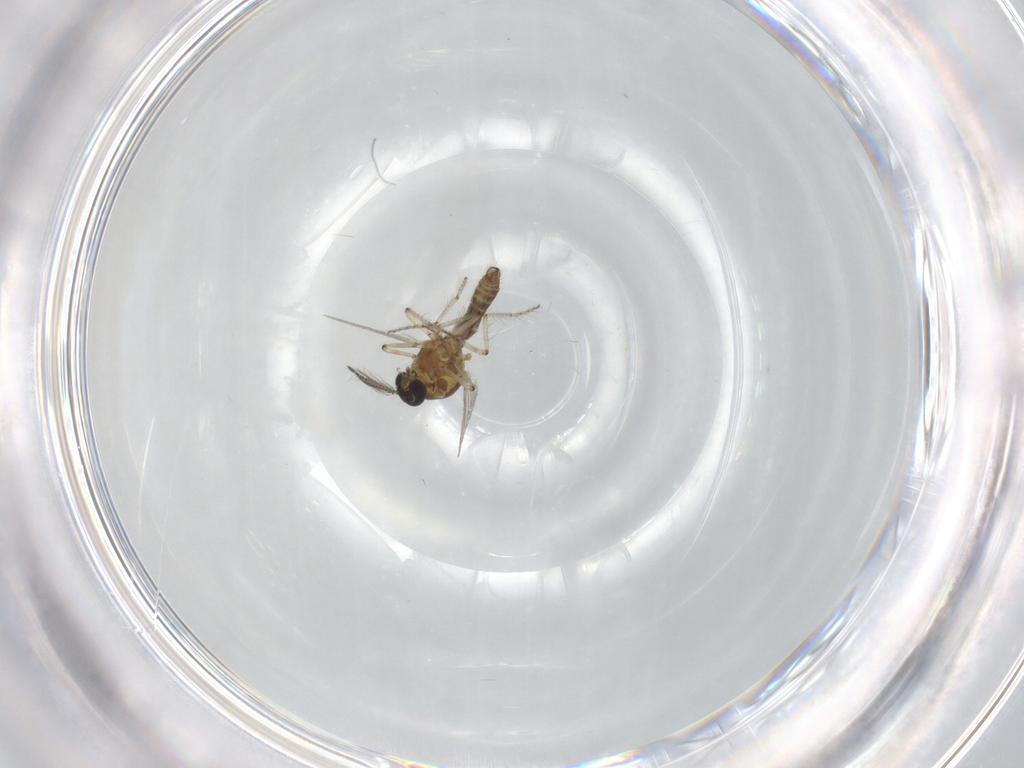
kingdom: Animalia
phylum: Arthropoda
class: Insecta
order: Diptera
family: Ceratopogonidae
